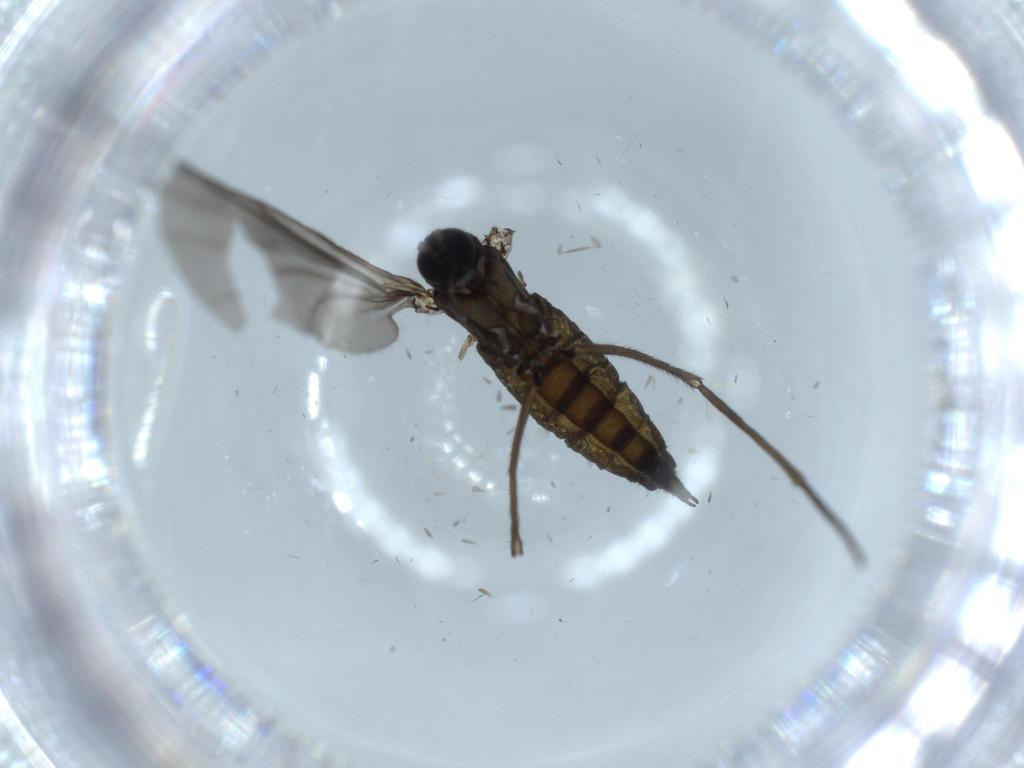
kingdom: Animalia
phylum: Arthropoda
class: Insecta
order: Diptera
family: Sciaridae
